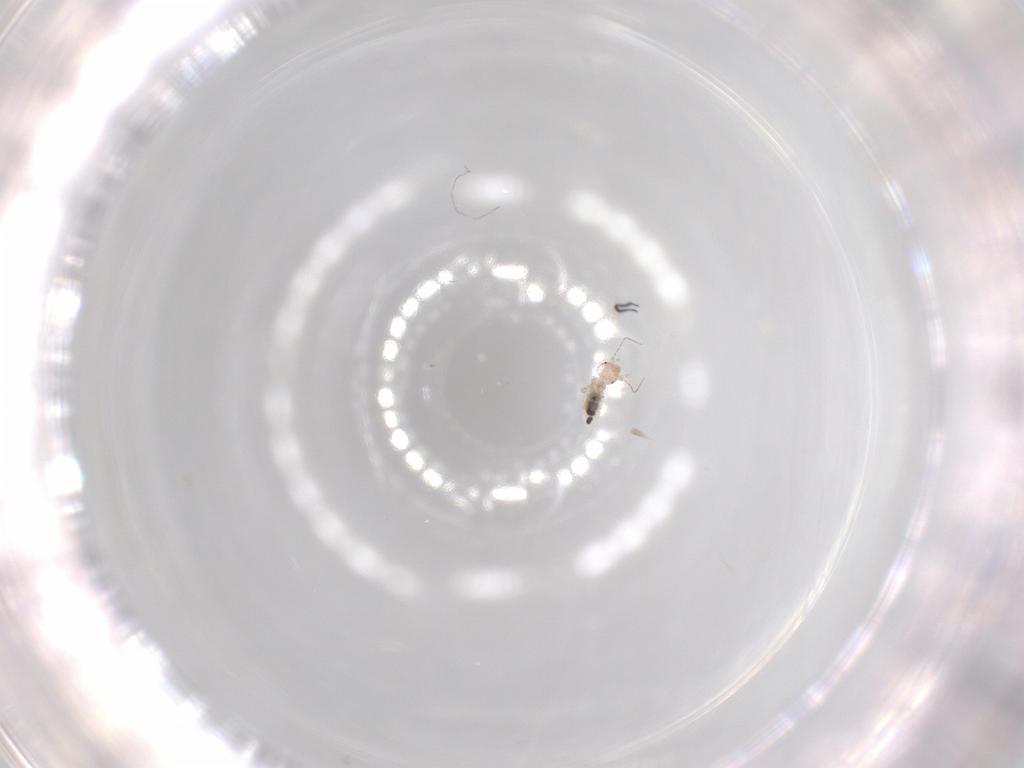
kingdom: Animalia
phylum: Arthropoda
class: Insecta
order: Psocodea
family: Liposcelididae
